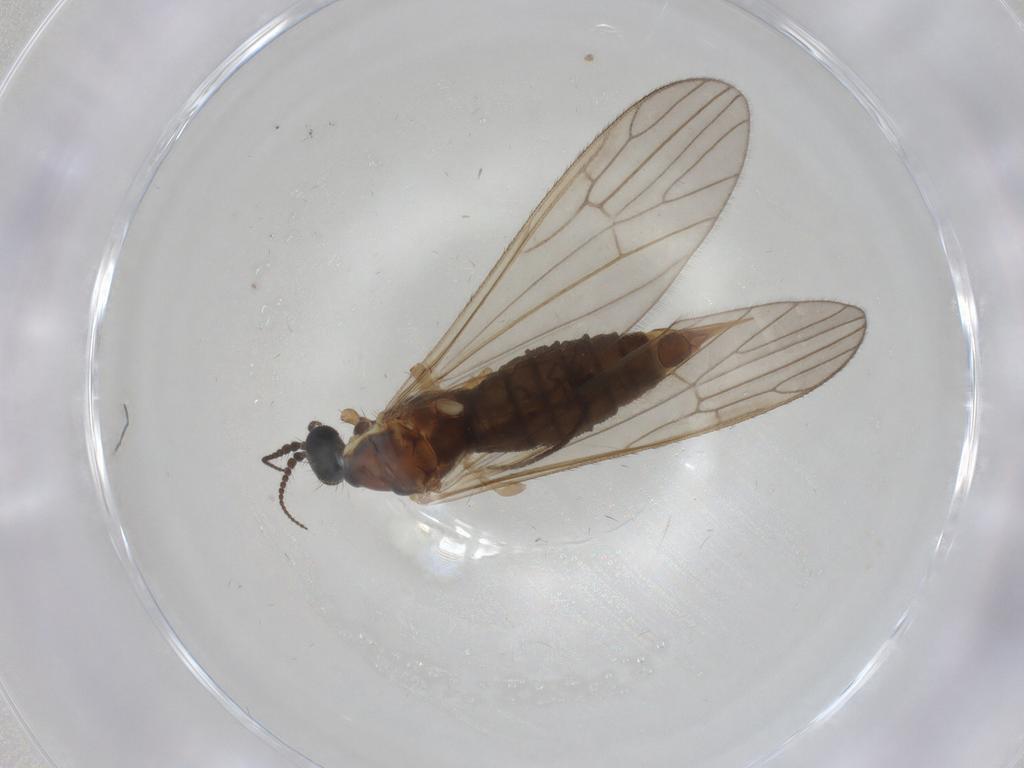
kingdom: Animalia
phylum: Arthropoda
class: Insecta
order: Diptera
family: Agromyzidae
